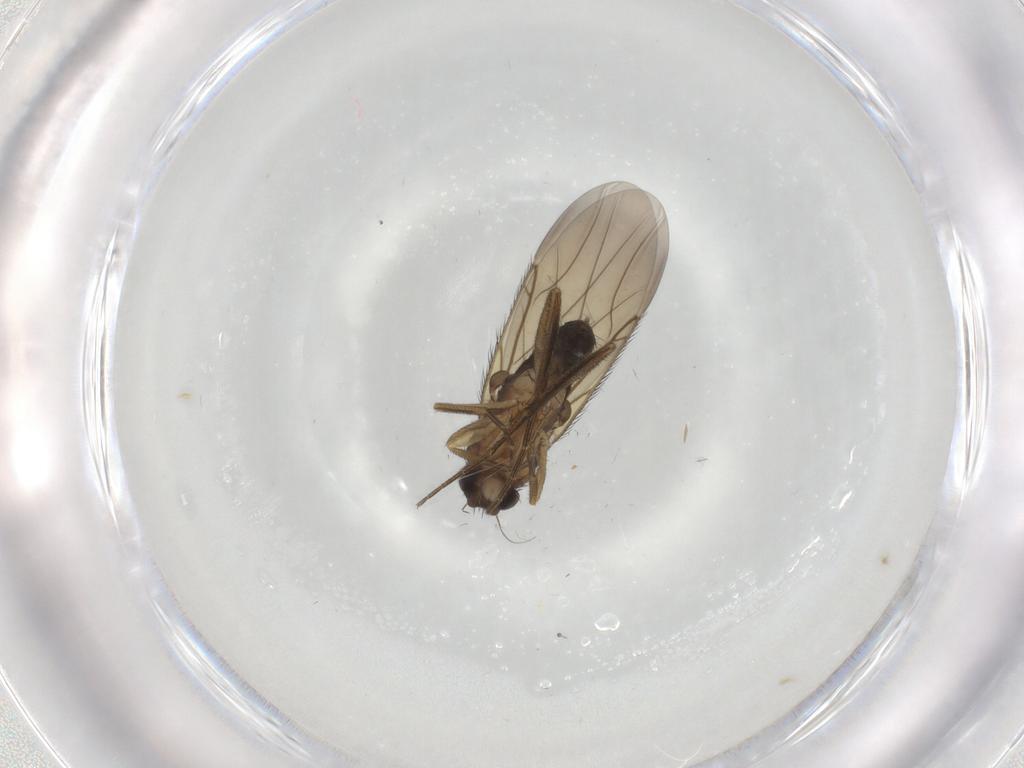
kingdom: Animalia
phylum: Arthropoda
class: Insecta
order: Diptera
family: Phoridae
